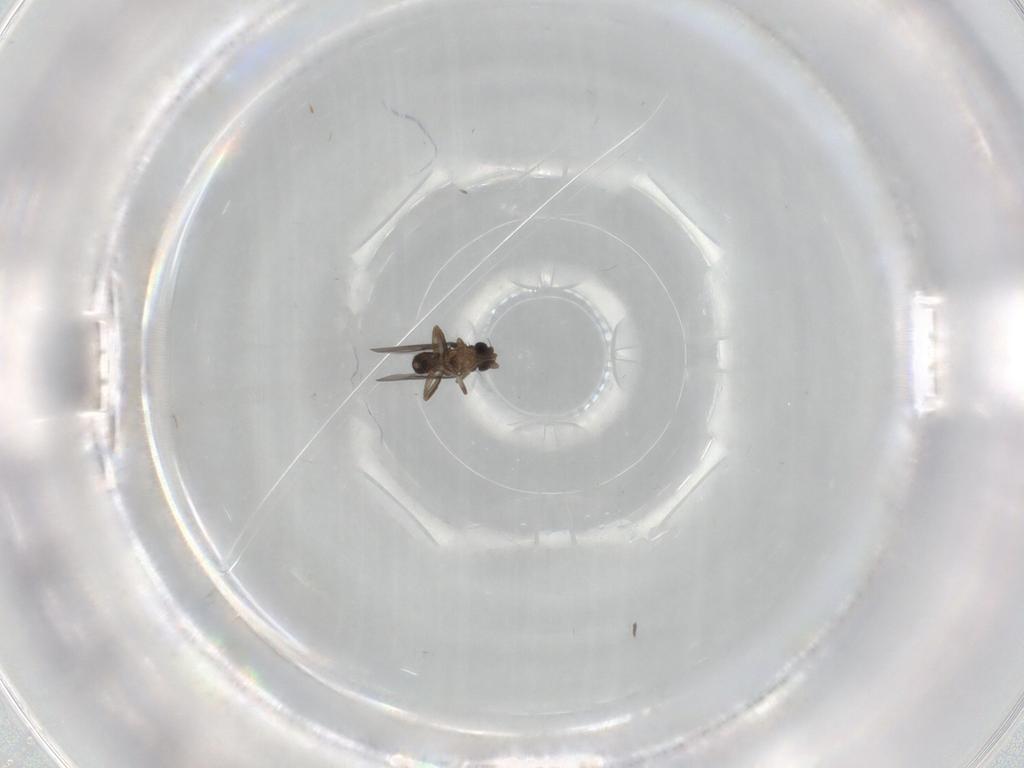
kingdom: Animalia
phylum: Arthropoda
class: Insecta
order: Diptera
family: Cecidomyiidae
